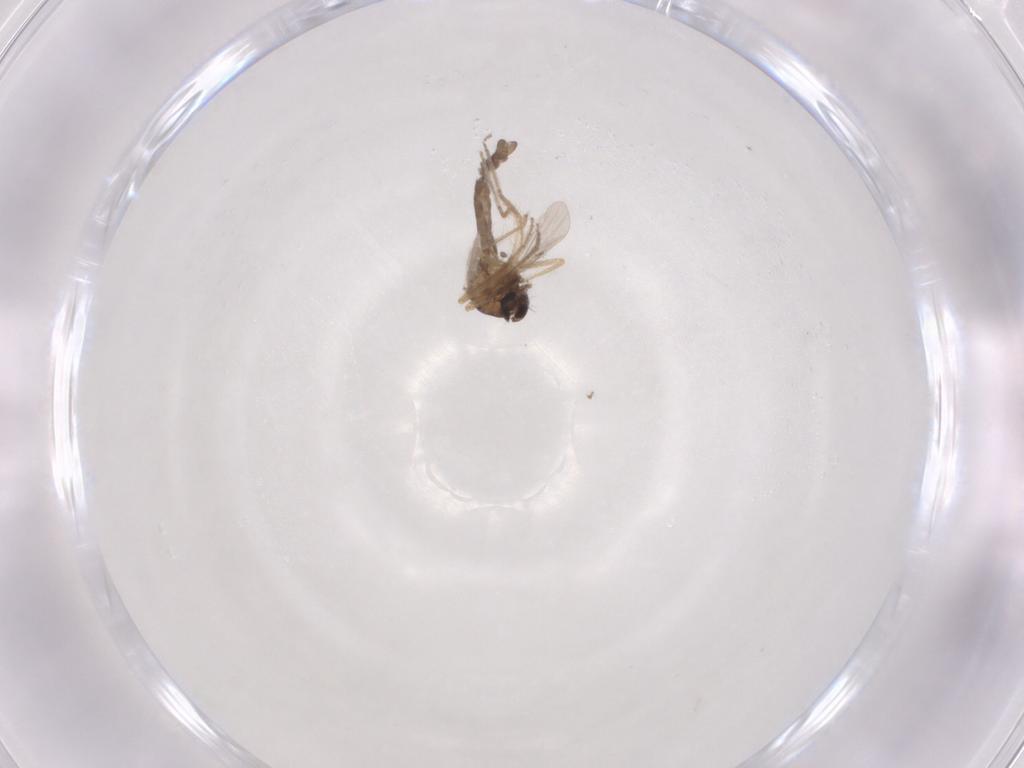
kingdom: Animalia
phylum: Arthropoda
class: Insecta
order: Diptera
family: Ceratopogonidae
